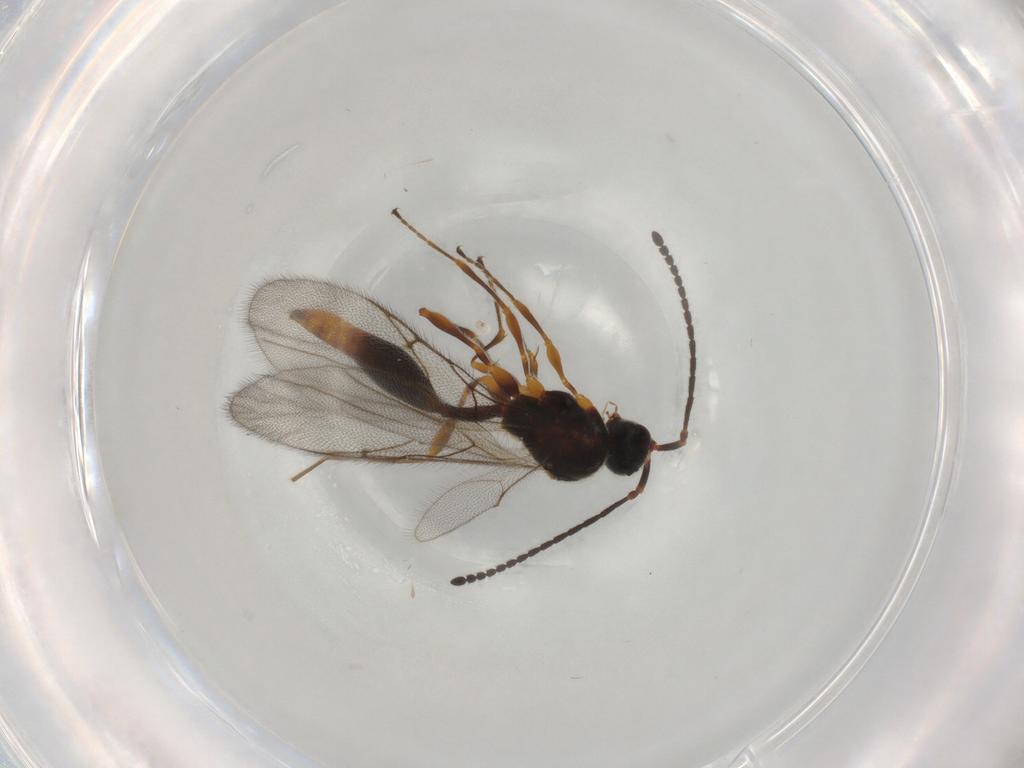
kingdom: Animalia
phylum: Arthropoda
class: Insecta
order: Hymenoptera
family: Diapriidae
